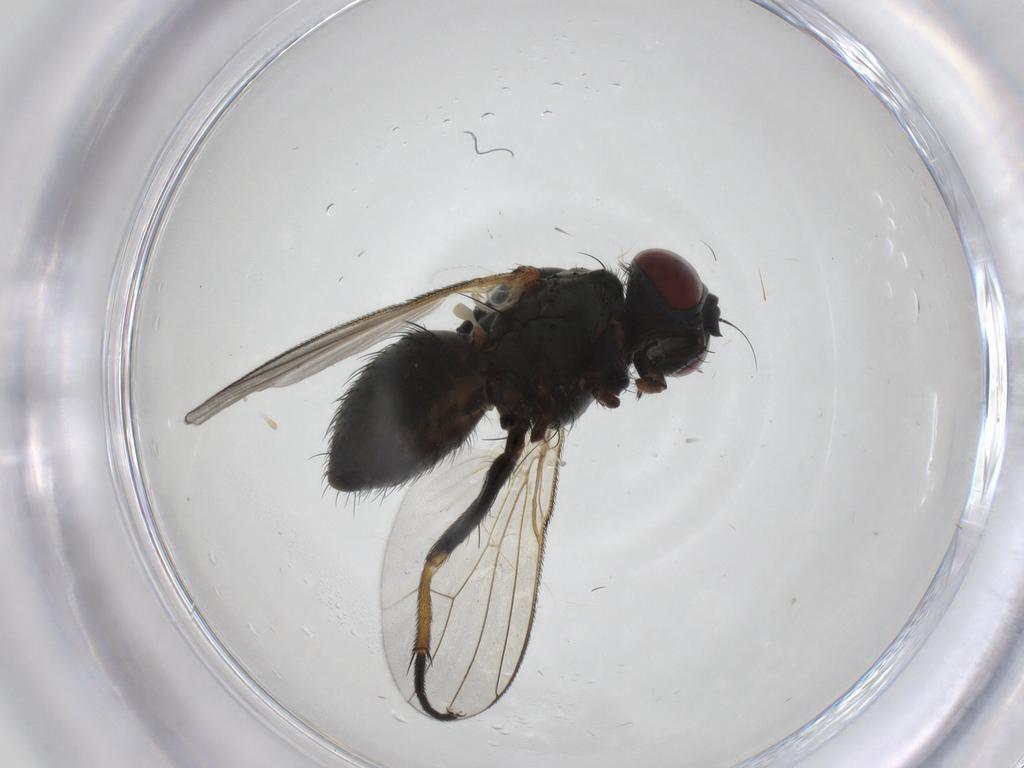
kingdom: Animalia
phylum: Arthropoda
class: Insecta
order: Diptera
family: Muscidae
